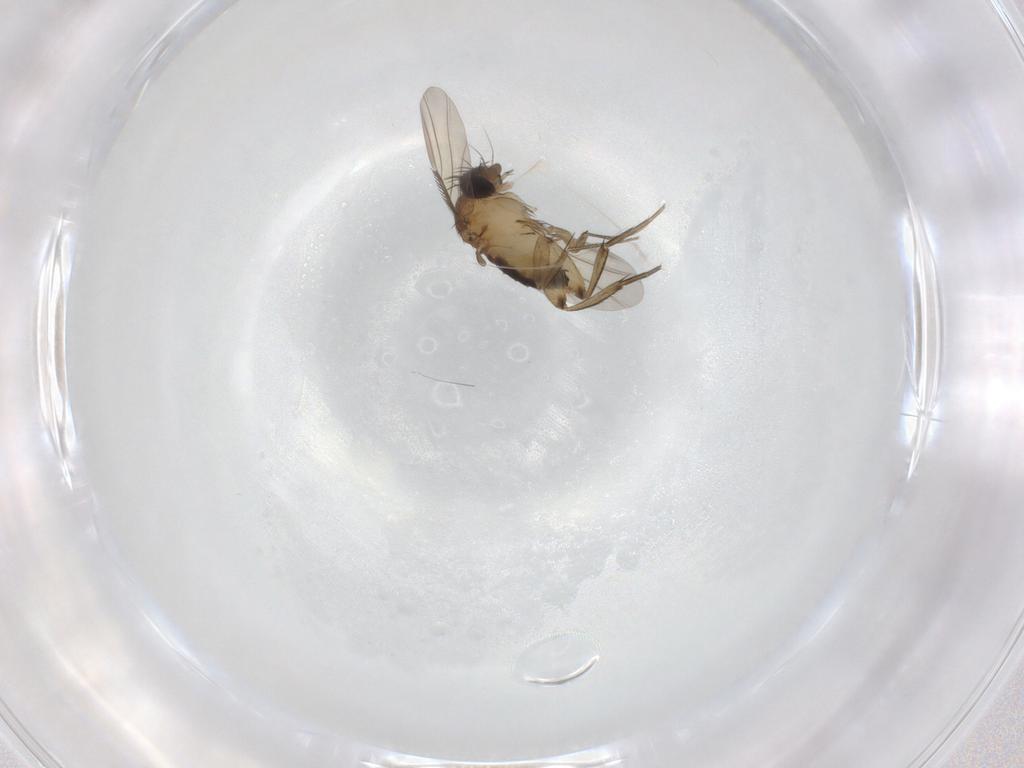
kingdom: Animalia
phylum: Arthropoda
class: Insecta
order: Diptera
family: Phoridae
